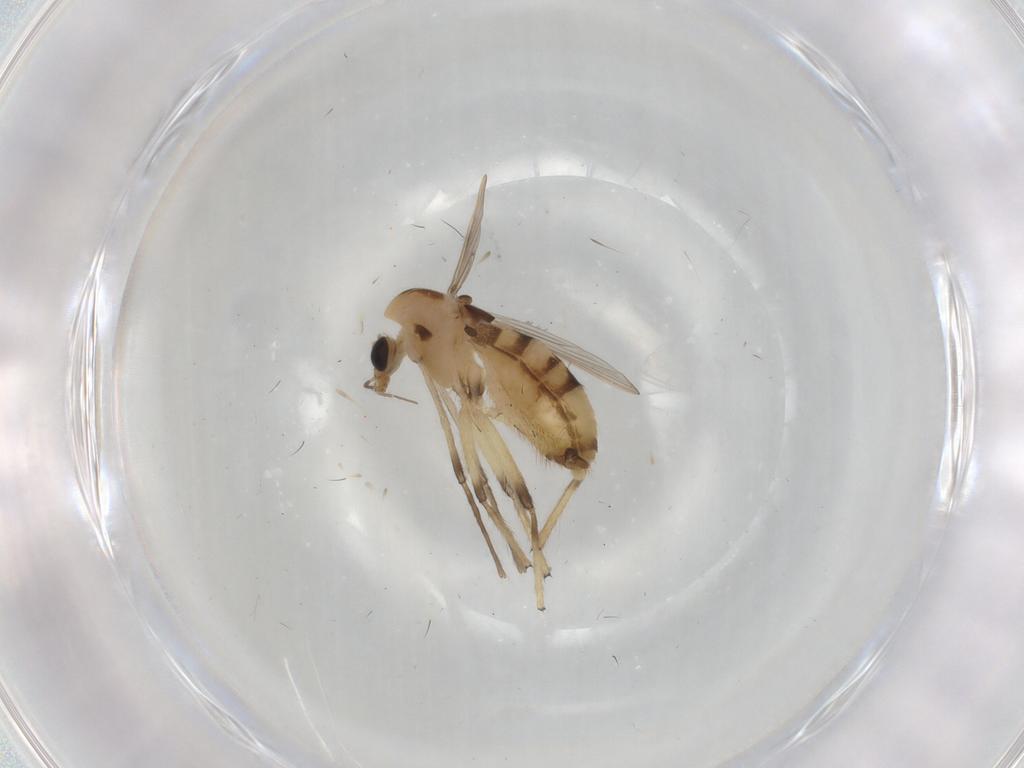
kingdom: Animalia
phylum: Arthropoda
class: Insecta
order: Diptera
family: Chironomidae
